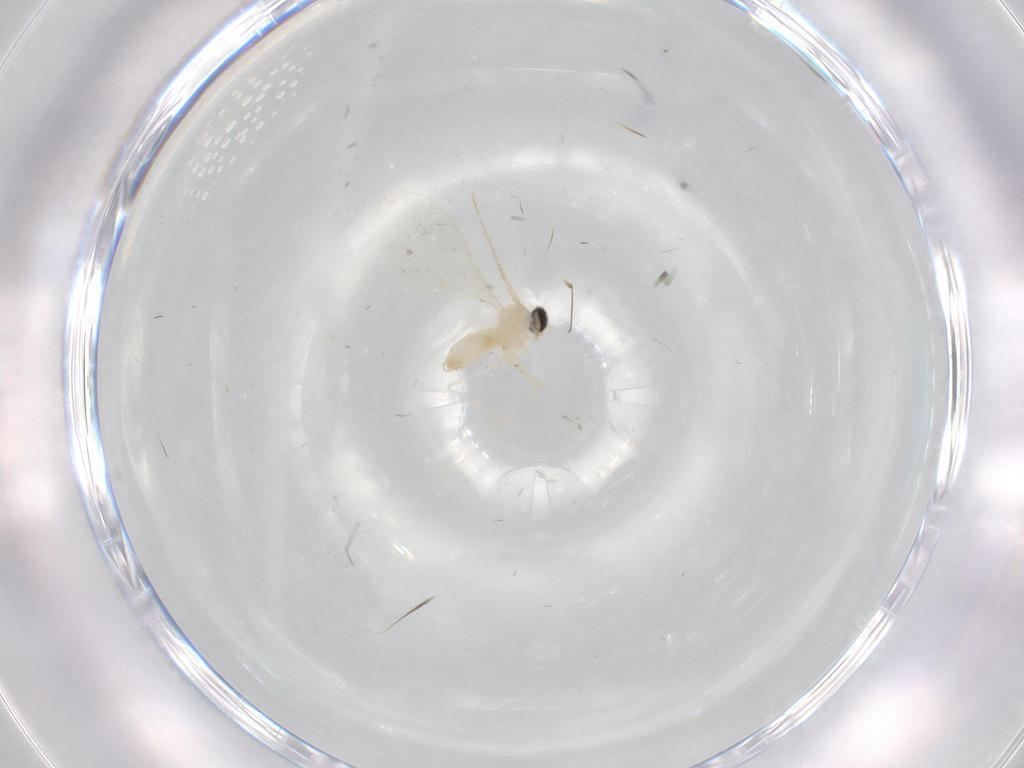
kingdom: Animalia
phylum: Arthropoda
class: Insecta
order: Diptera
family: Cecidomyiidae
